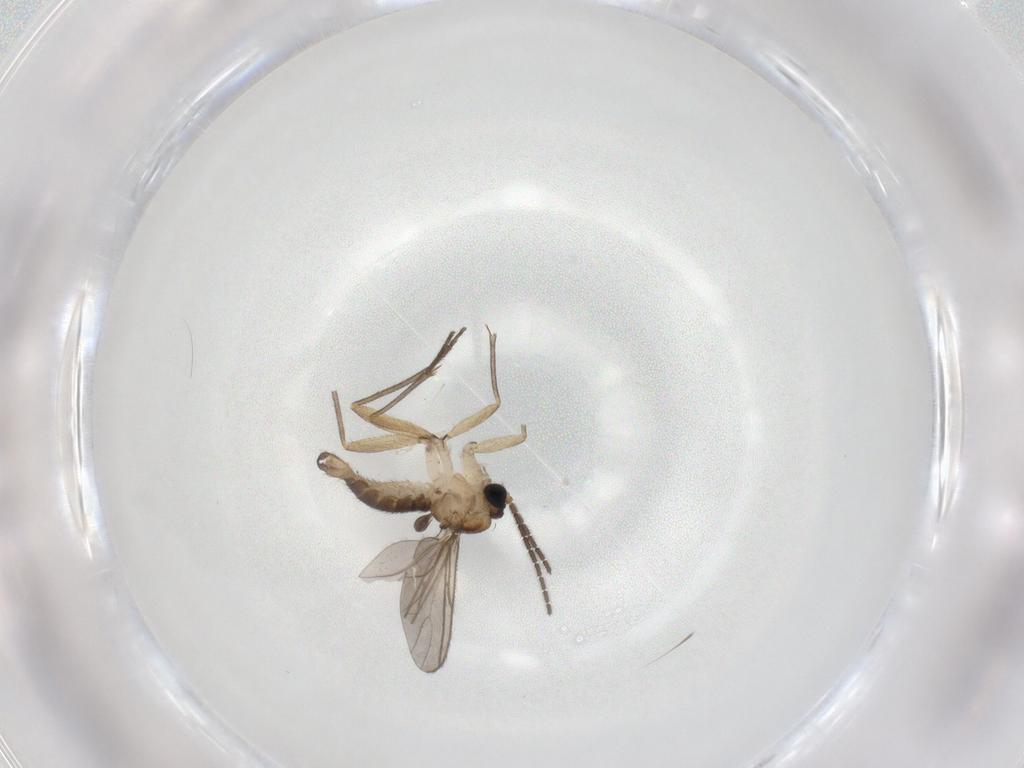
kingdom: Animalia
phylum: Arthropoda
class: Insecta
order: Diptera
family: Sciaridae
